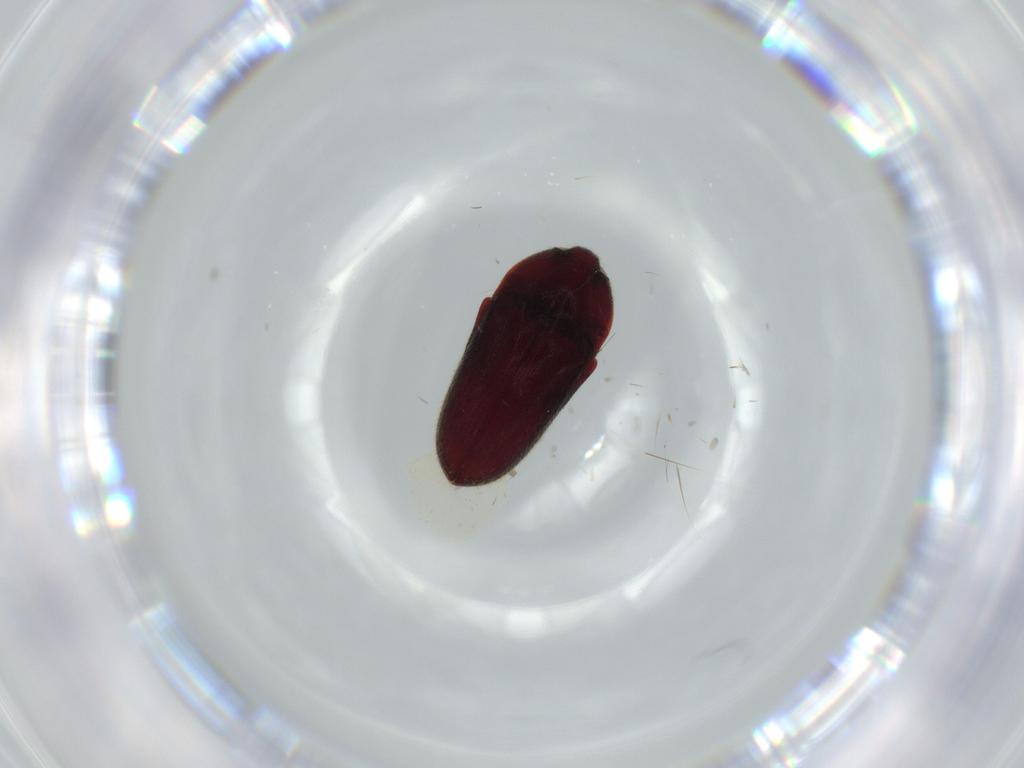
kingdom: Animalia
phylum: Arthropoda
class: Insecta
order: Coleoptera
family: Throscidae
